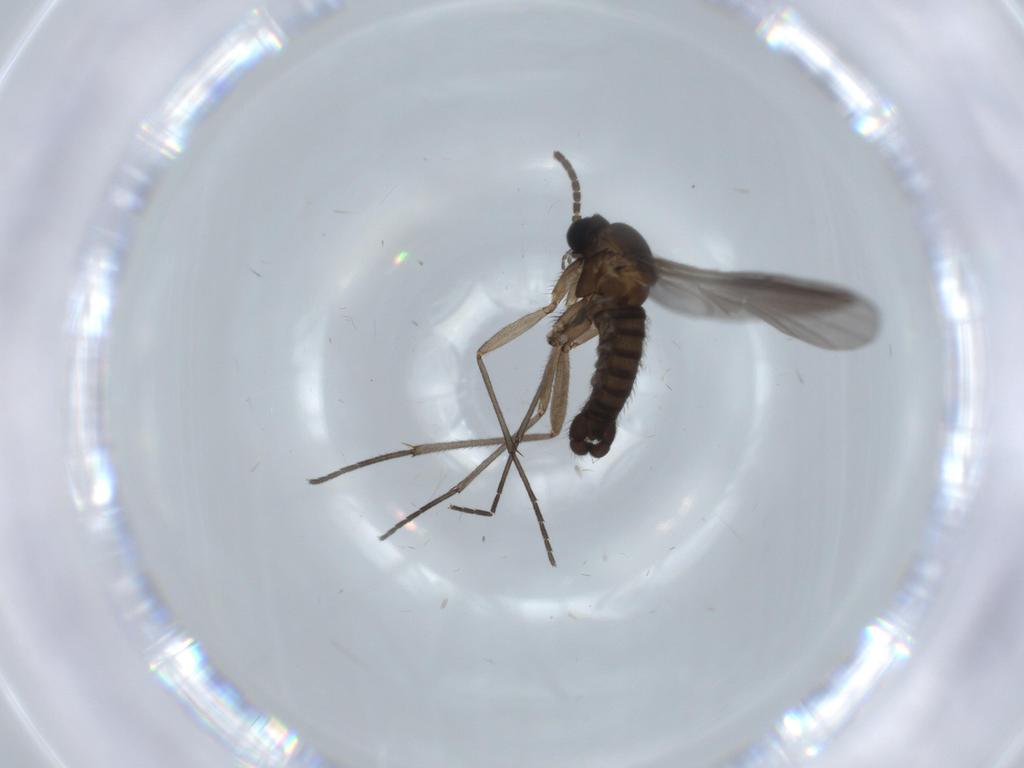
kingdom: Animalia
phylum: Arthropoda
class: Insecta
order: Diptera
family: Sciaridae
